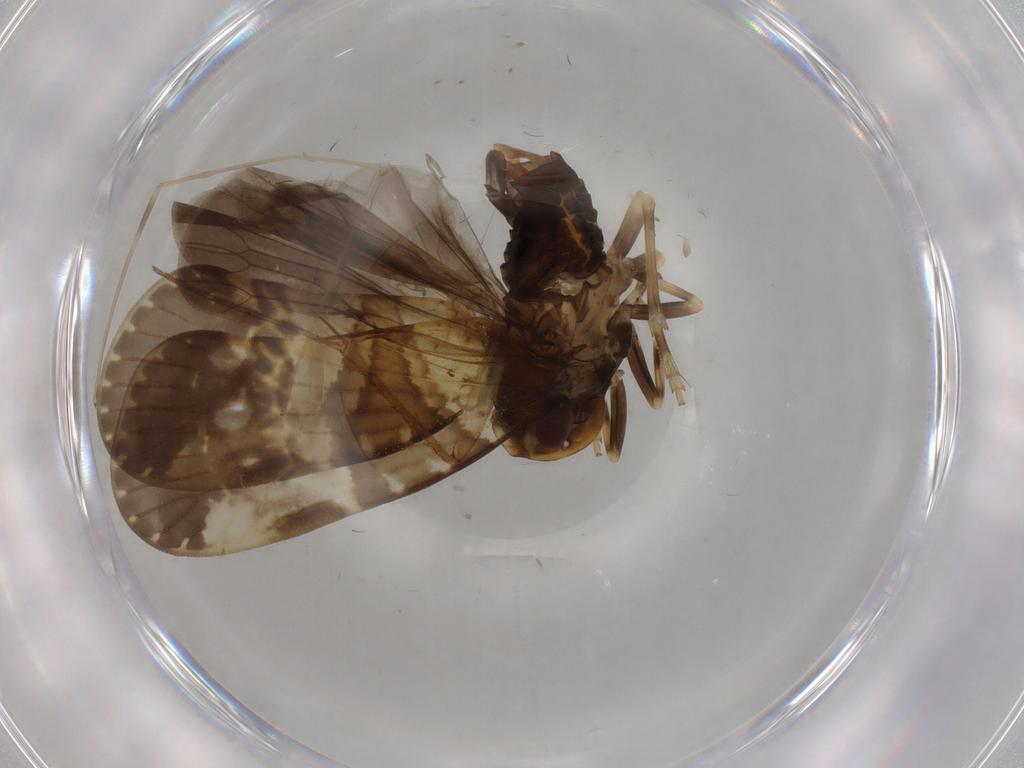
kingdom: Animalia
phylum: Arthropoda
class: Insecta
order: Hemiptera
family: Cixiidae
